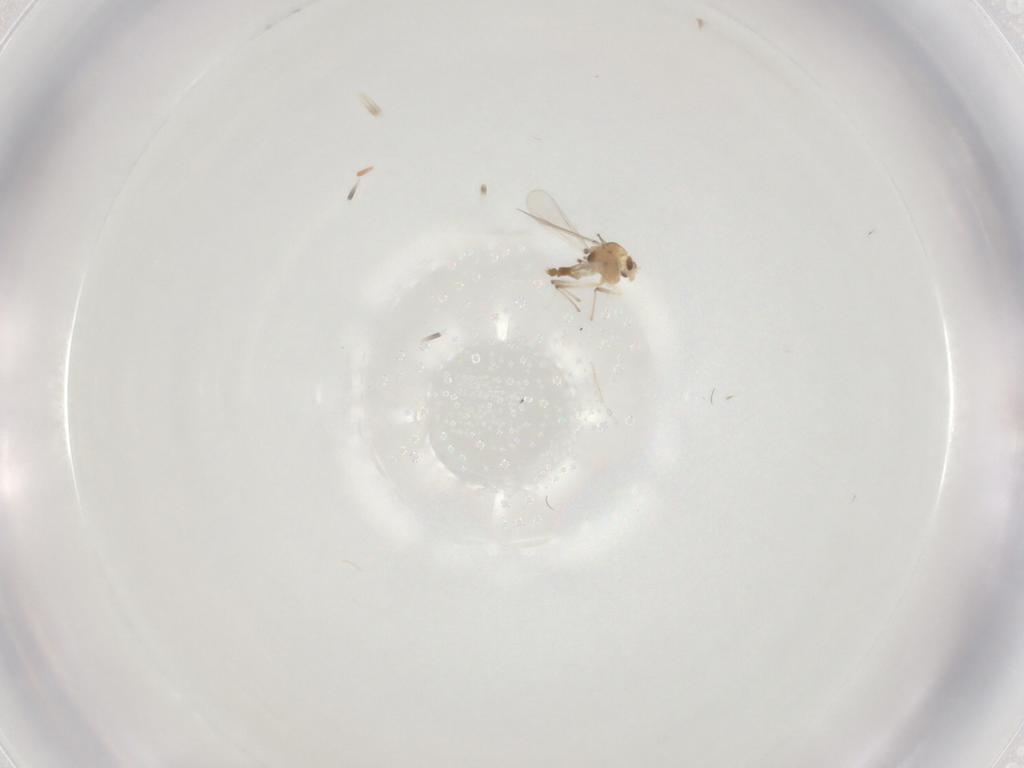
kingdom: Animalia
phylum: Arthropoda
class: Insecta
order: Diptera
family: Chironomidae
